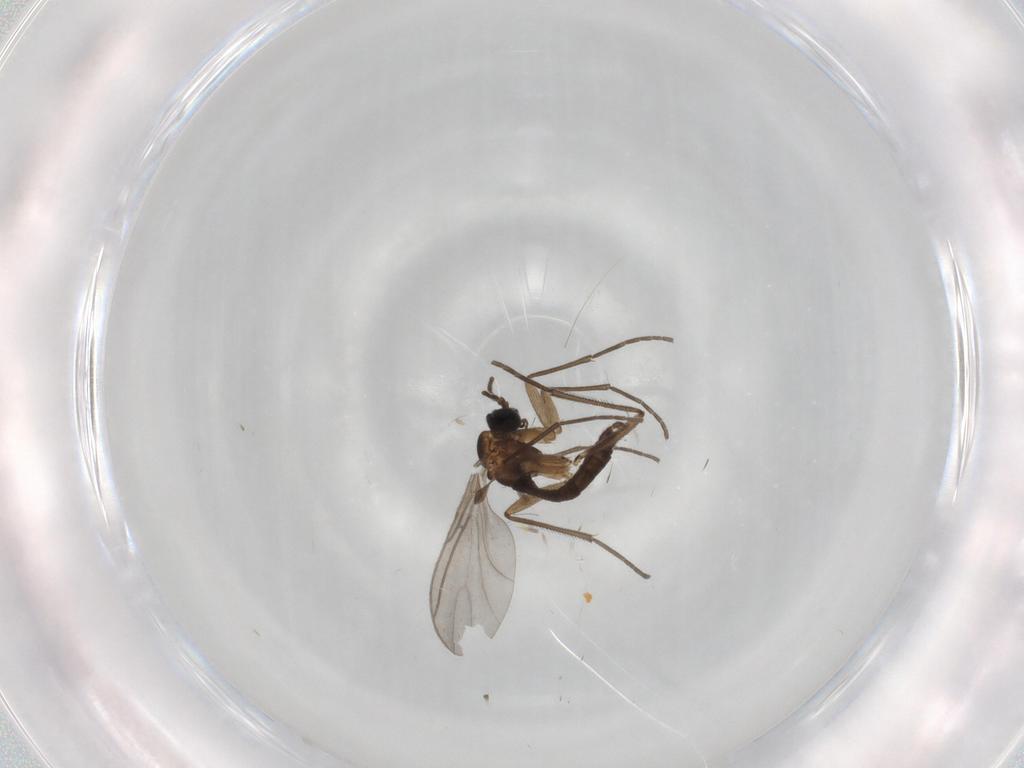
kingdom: Animalia
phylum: Arthropoda
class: Insecta
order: Diptera
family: Sciaridae
